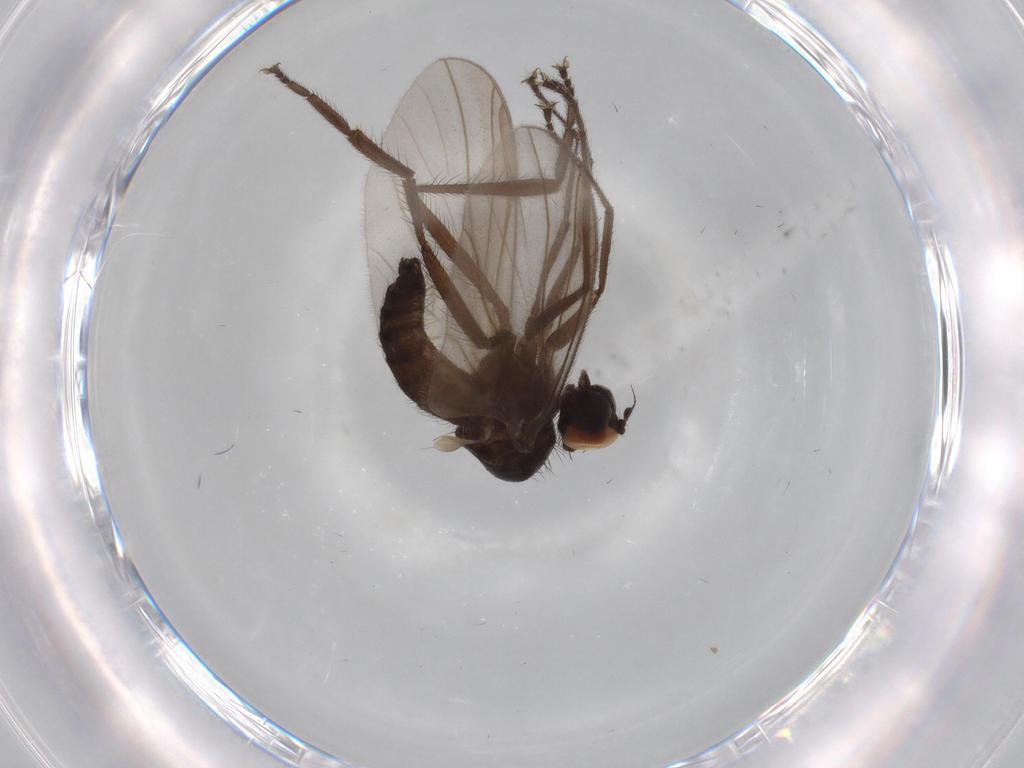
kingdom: Animalia
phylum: Arthropoda
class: Insecta
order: Diptera
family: Hybotidae
